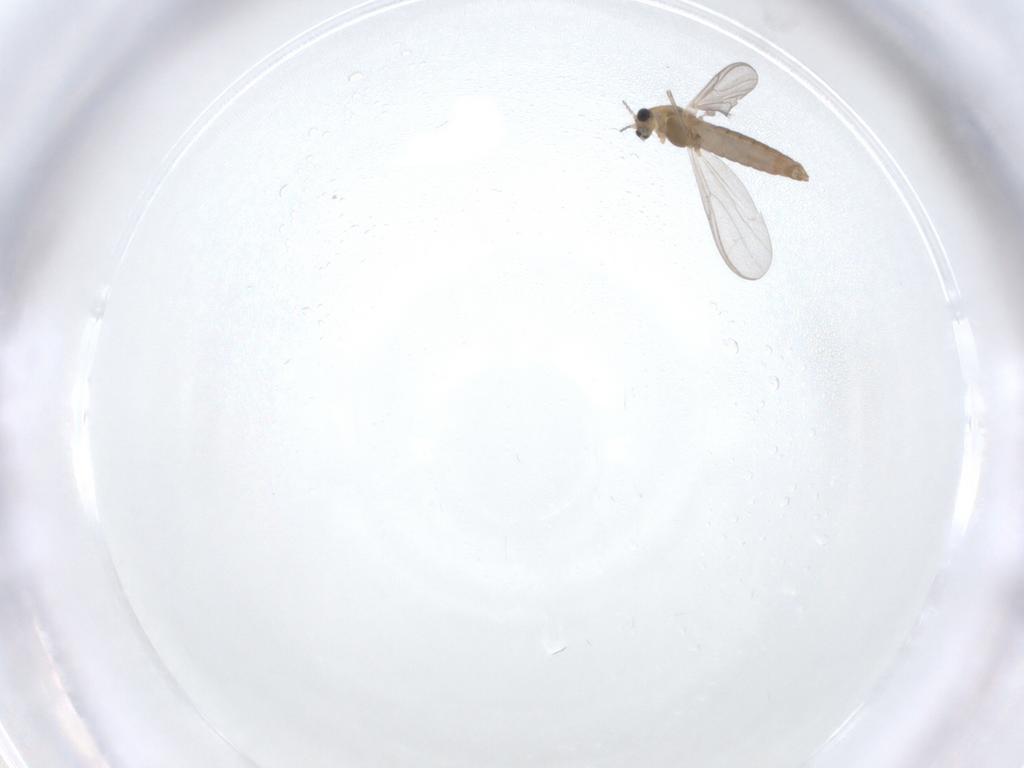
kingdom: Animalia
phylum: Arthropoda
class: Insecta
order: Diptera
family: Chironomidae
